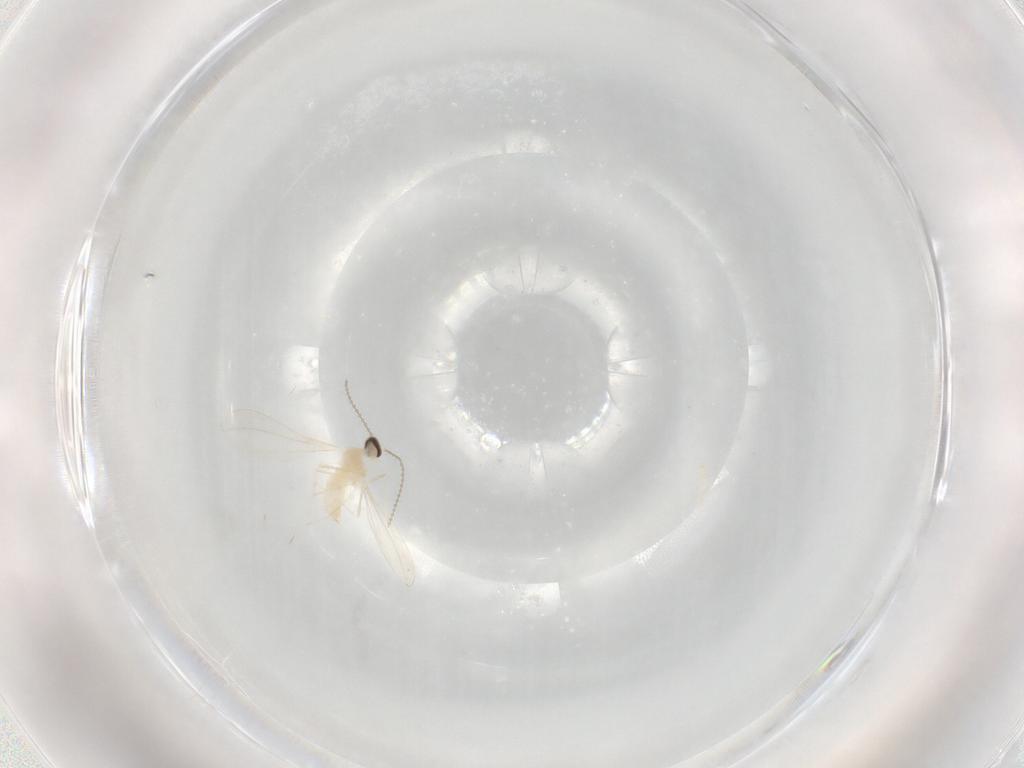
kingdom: Animalia
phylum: Arthropoda
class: Insecta
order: Diptera
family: Cecidomyiidae
